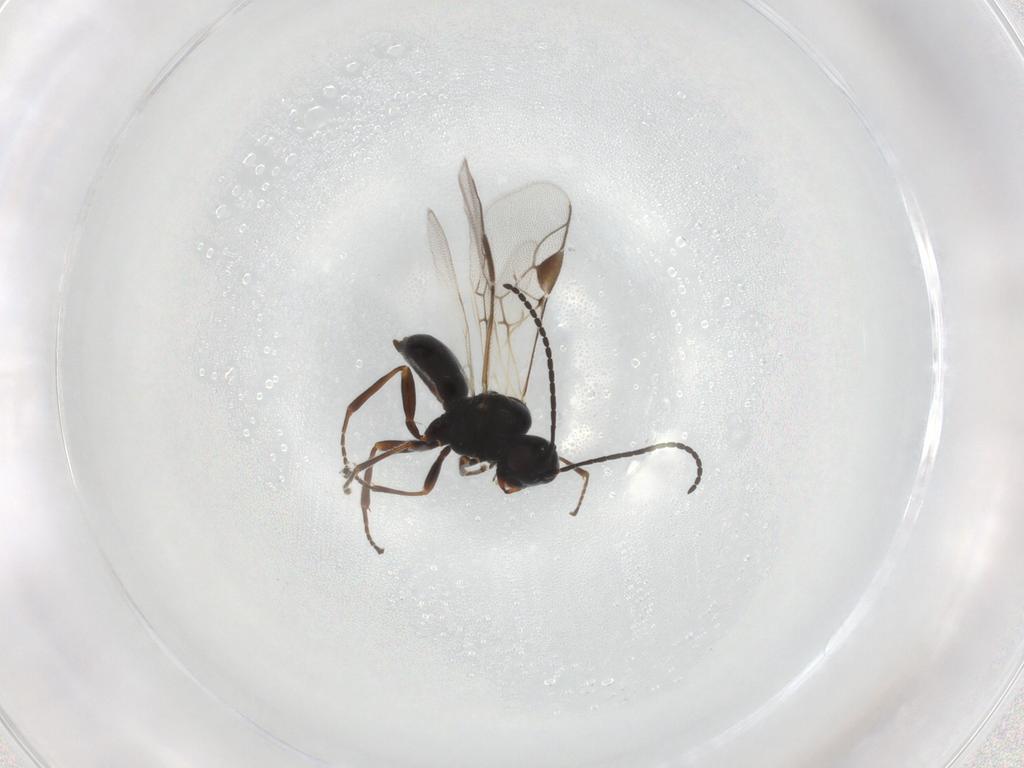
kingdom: Animalia
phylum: Arthropoda
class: Insecta
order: Hymenoptera
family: Braconidae
